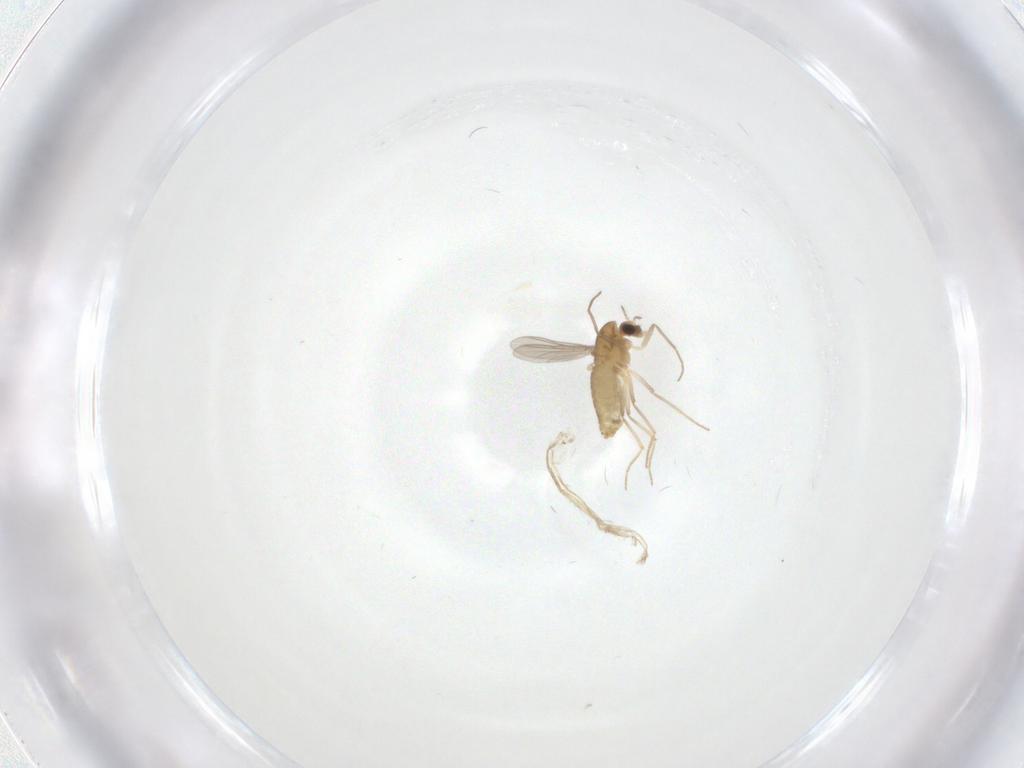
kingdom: Animalia
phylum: Arthropoda
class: Insecta
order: Diptera
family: Chironomidae
